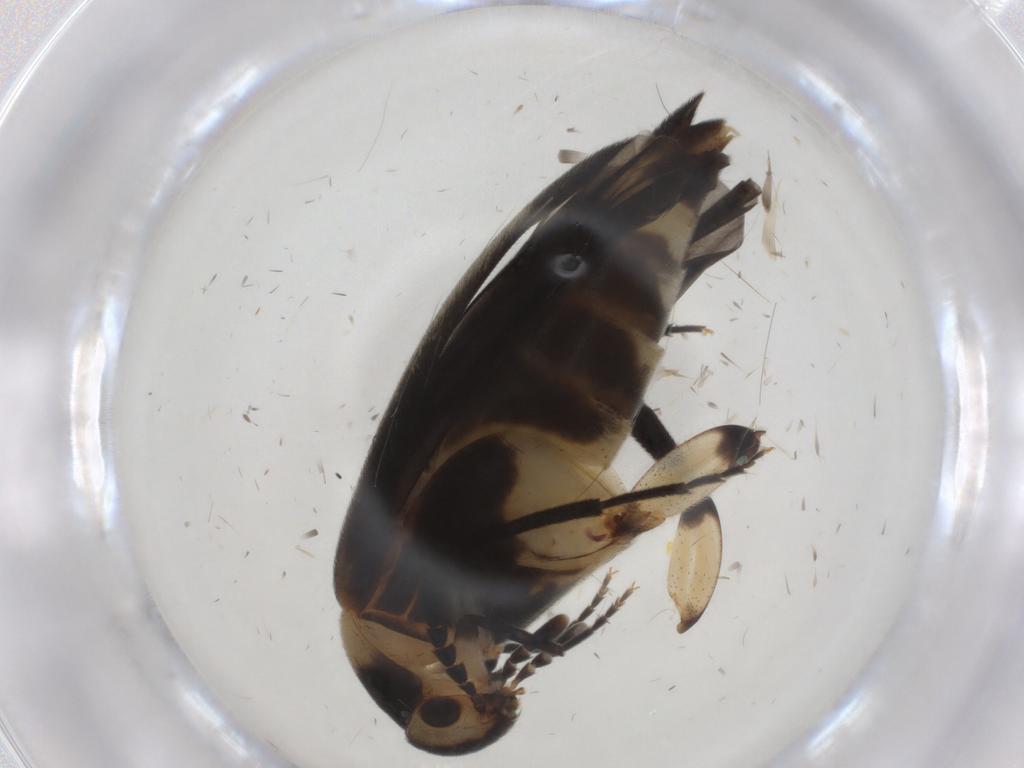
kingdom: Animalia
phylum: Arthropoda
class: Insecta
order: Coleoptera
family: Mordellidae
